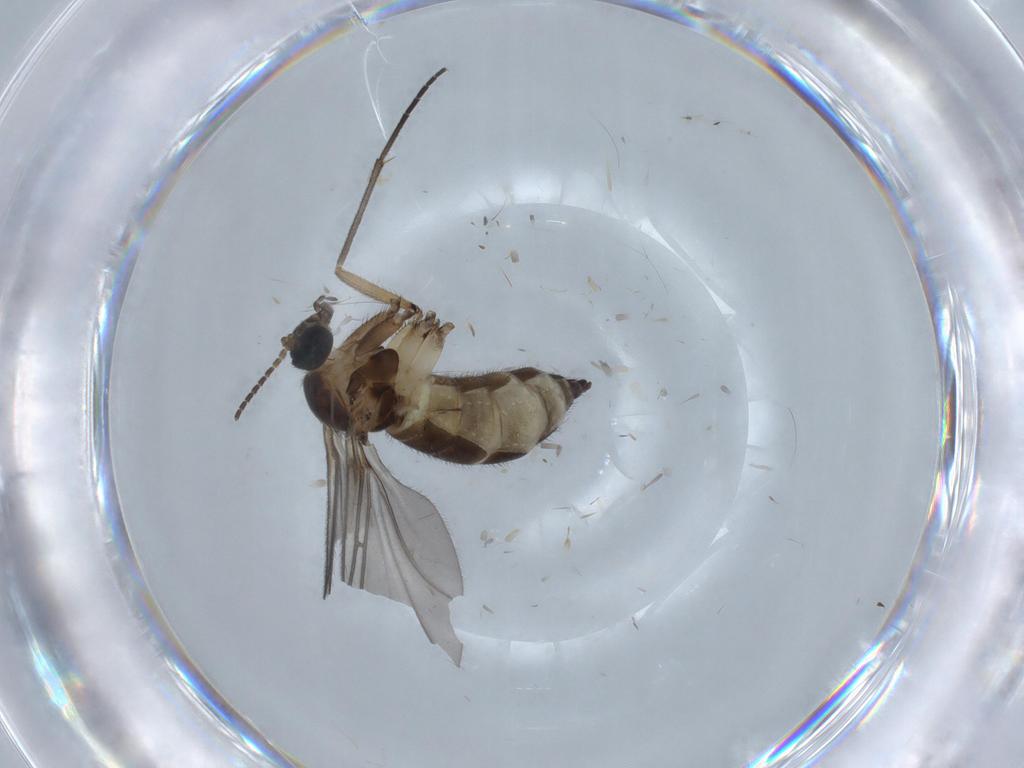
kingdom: Animalia
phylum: Arthropoda
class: Insecta
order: Diptera
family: Sciaridae
